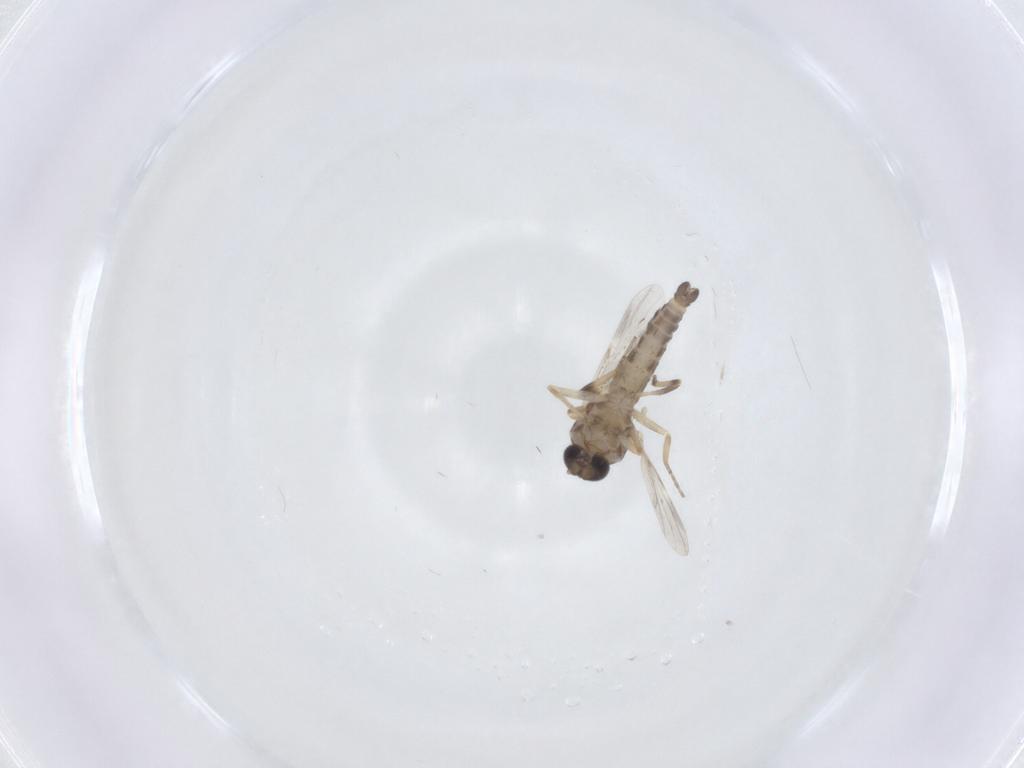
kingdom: Animalia
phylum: Arthropoda
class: Insecta
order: Diptera
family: Ceratopogonidae
